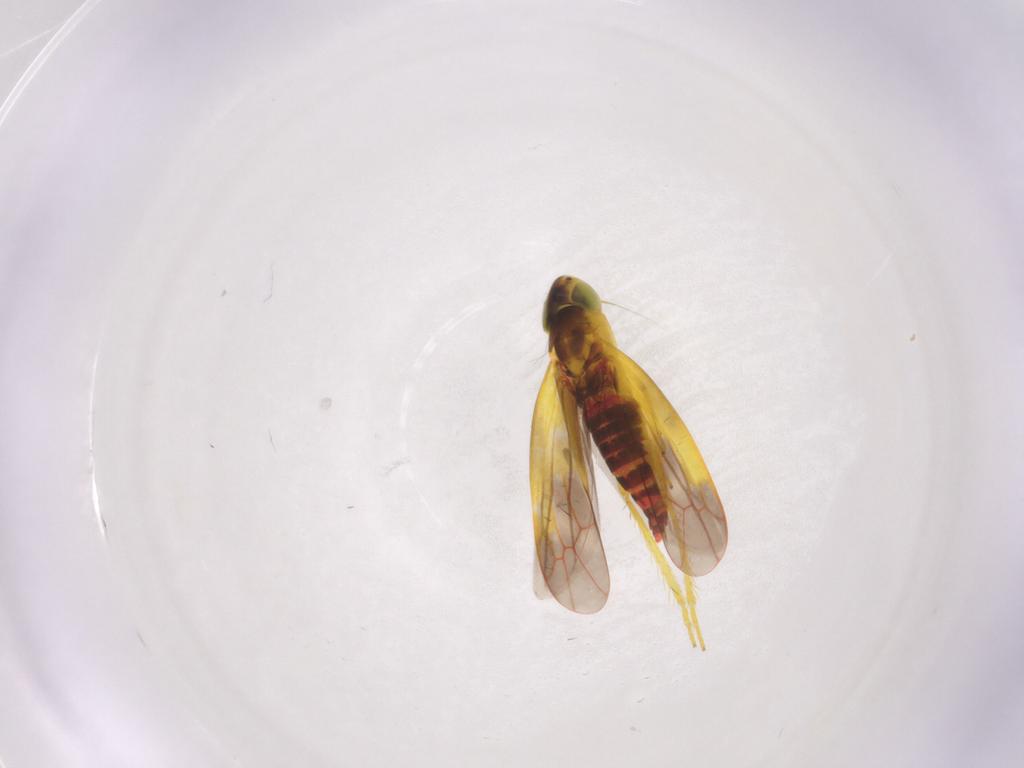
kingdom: Animalia
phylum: Arthropoda
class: Insecta
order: Hemiptera
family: Cicadellidae
